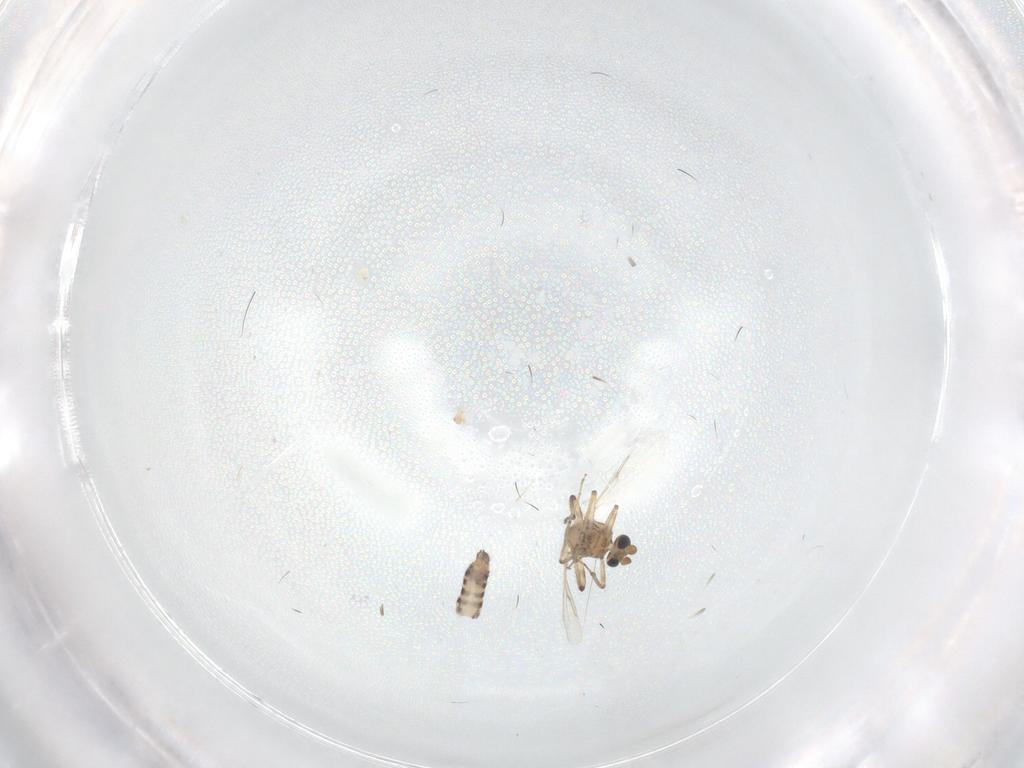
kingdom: Animalia
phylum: Arthropoda
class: Insecta
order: Diptera
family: Ceratopogonidae
